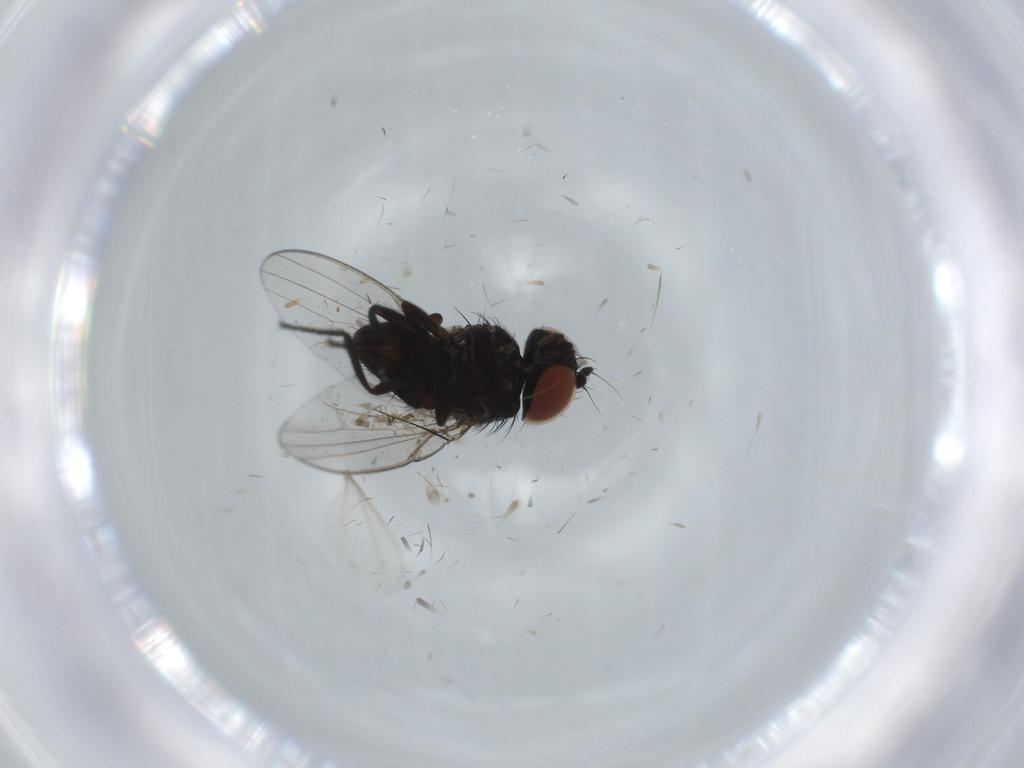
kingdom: Animalia
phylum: Arthropoda
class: Insecta
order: Diptera
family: Milichiidae
